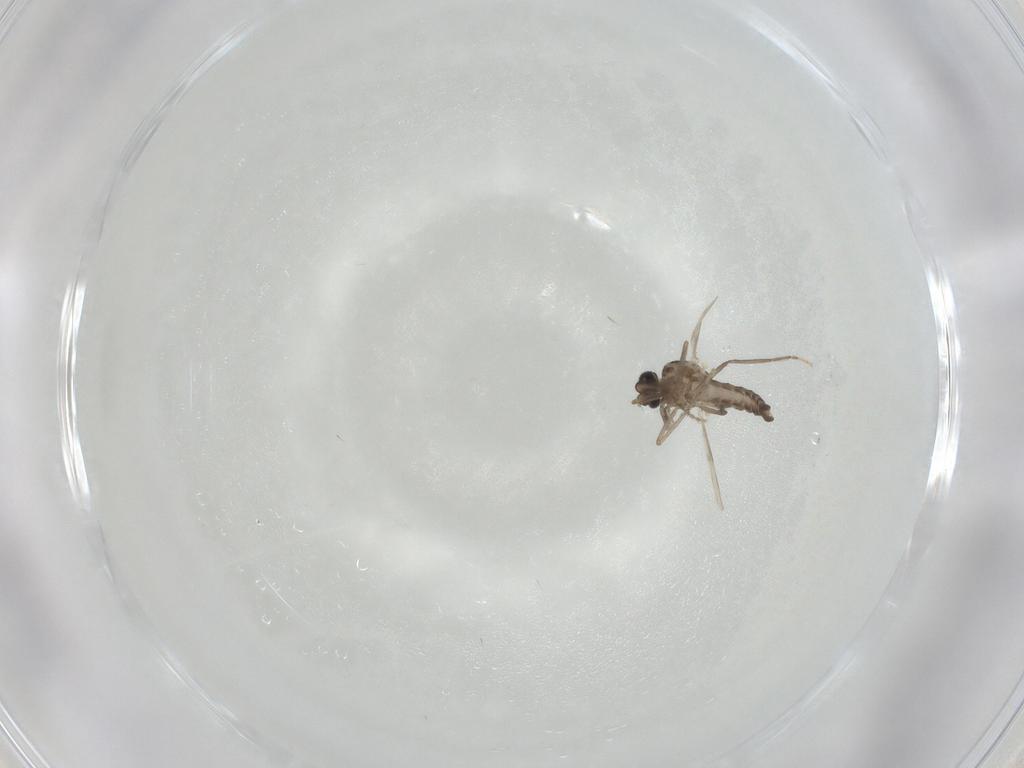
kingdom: Animalia
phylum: Arthropoda
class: Insecta
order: Diptera
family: Ceratopogonidae
